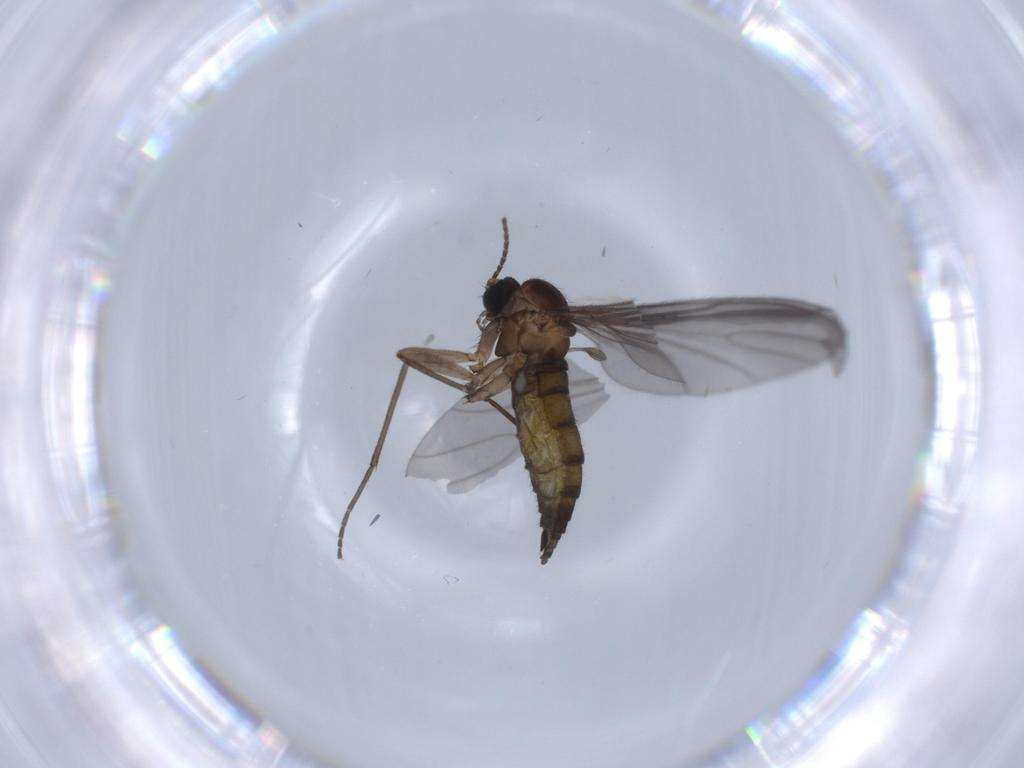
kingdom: Animalia
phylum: Arthropoda
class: Insecta
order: Diptera
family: Sciaridae
